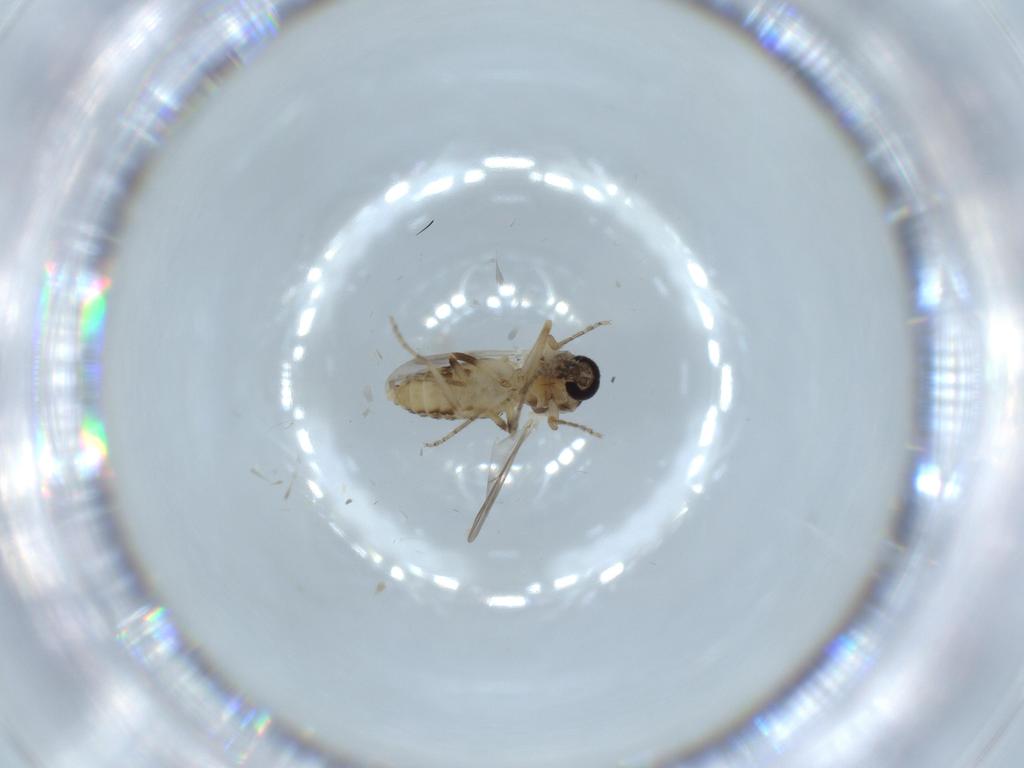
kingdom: Animalia
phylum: Arthropoda
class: Insecta
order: Diptera
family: Ceratopogonidae
